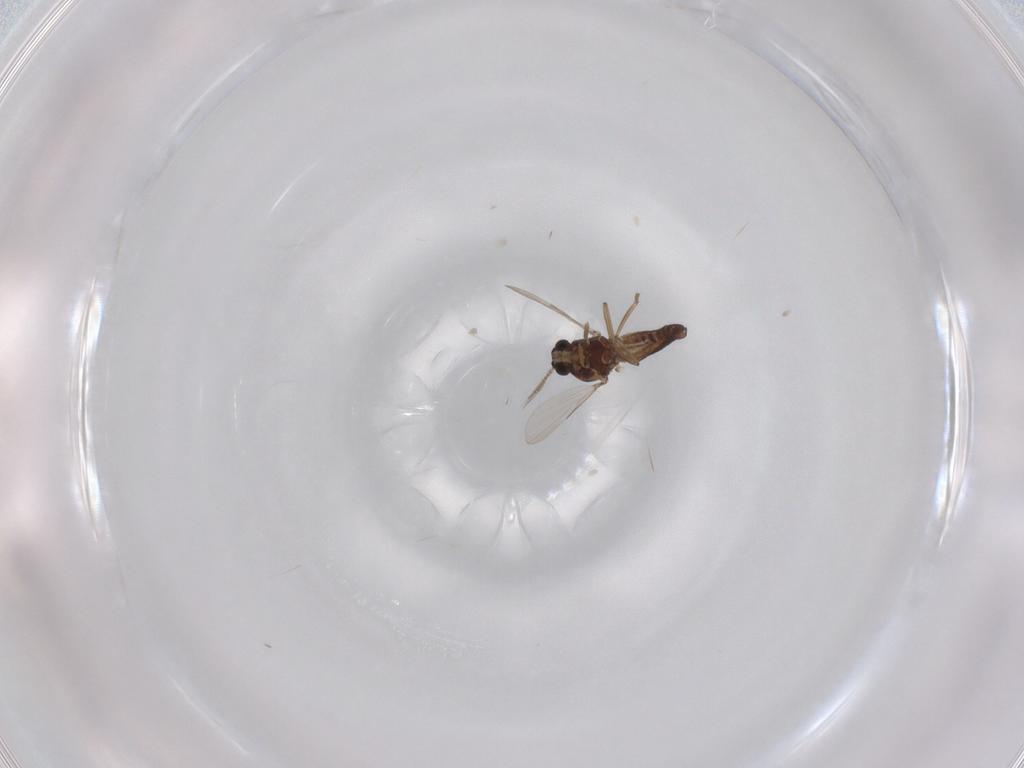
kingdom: Animalia
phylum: Arthropoda
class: Insecta
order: Diptera
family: Ceratopogonidae
